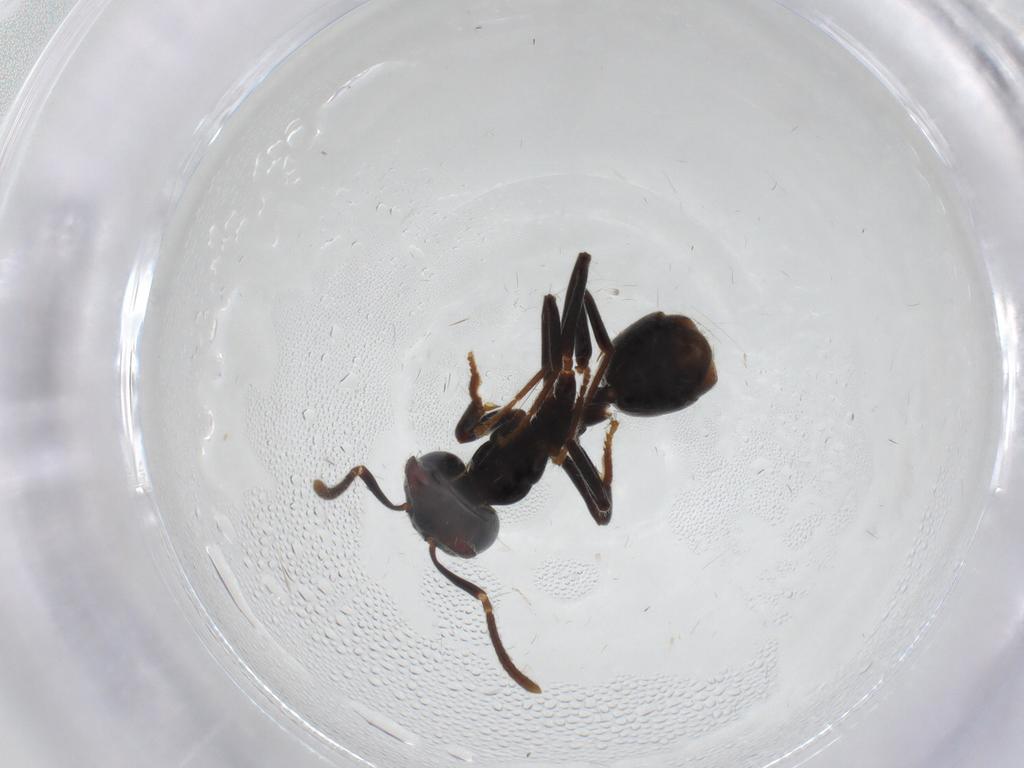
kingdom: Animalia
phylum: Arthropoda
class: Insecta
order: Hymenoptera
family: Formicidae
